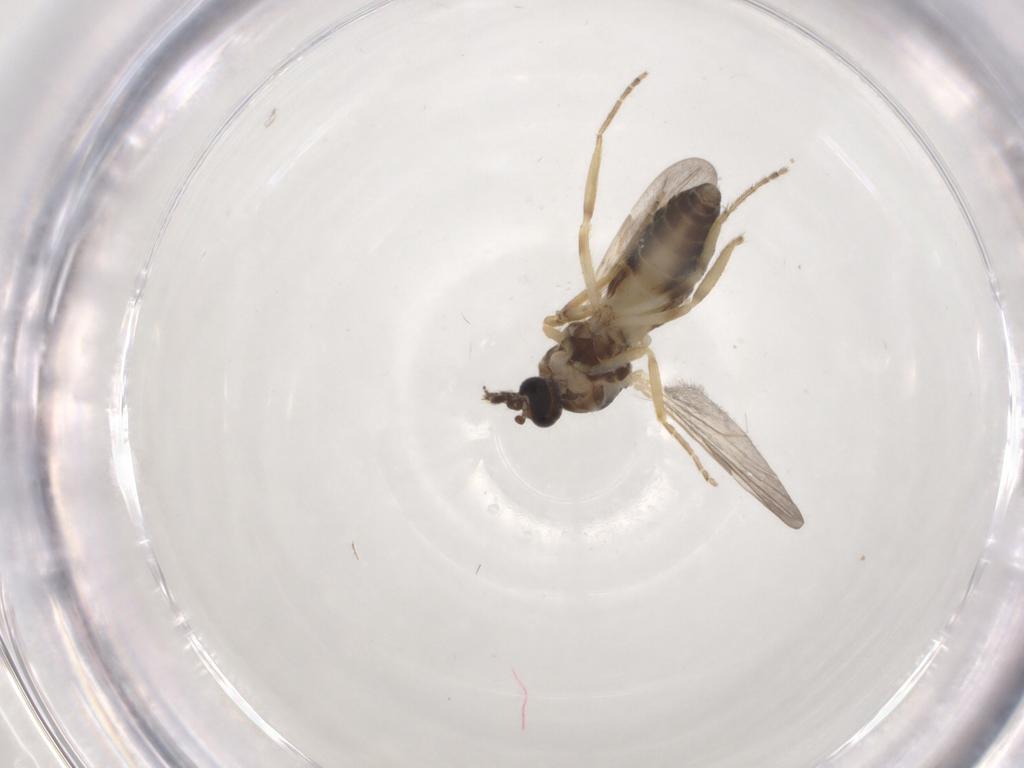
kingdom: Animalia
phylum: Arthropoda
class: Insecta
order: Diptera
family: Ceratopogonidae
